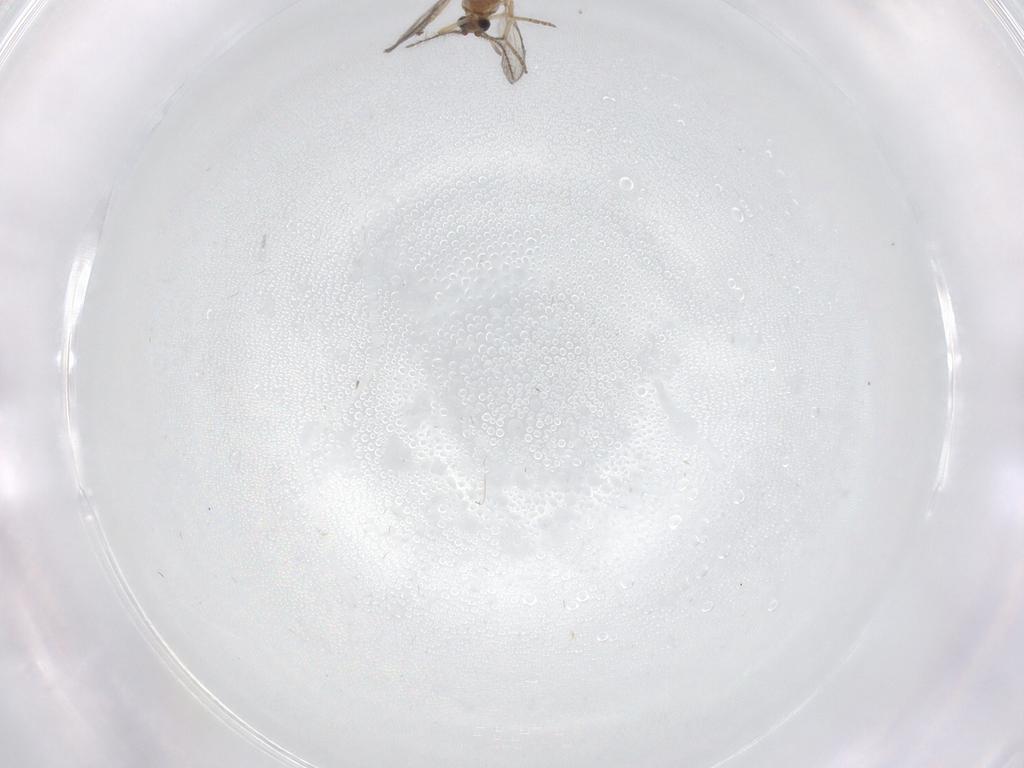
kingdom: Animalia
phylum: Arthropoda
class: Insecta
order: Diptera
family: Ceratopogonidae
